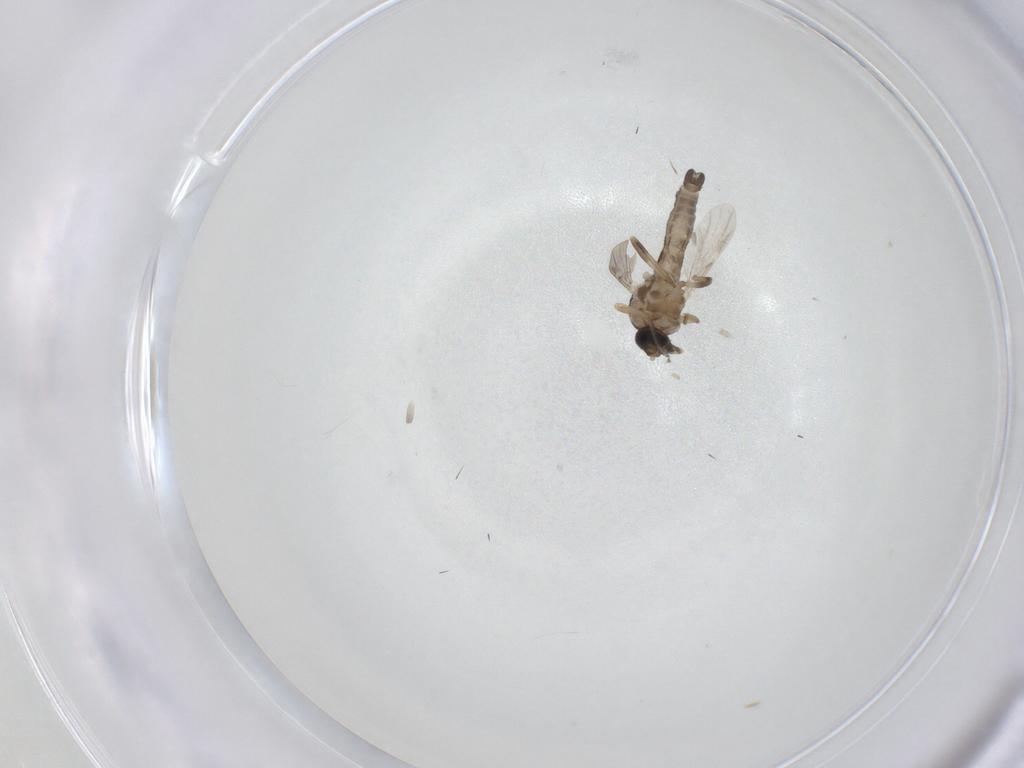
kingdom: Animalia
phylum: Arthropoda
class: Insecta
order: Diptera
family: Ceratopogonidae
